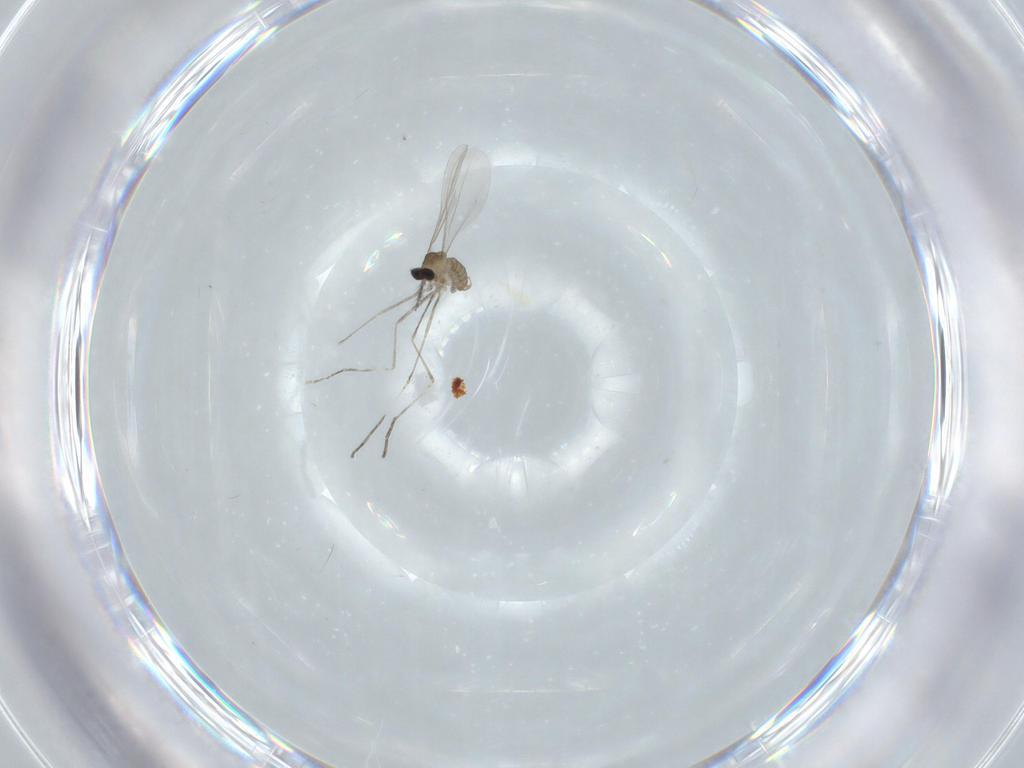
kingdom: Animalia
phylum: Arthropoda
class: Insecta
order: Diptera
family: Cecidomyiidae
